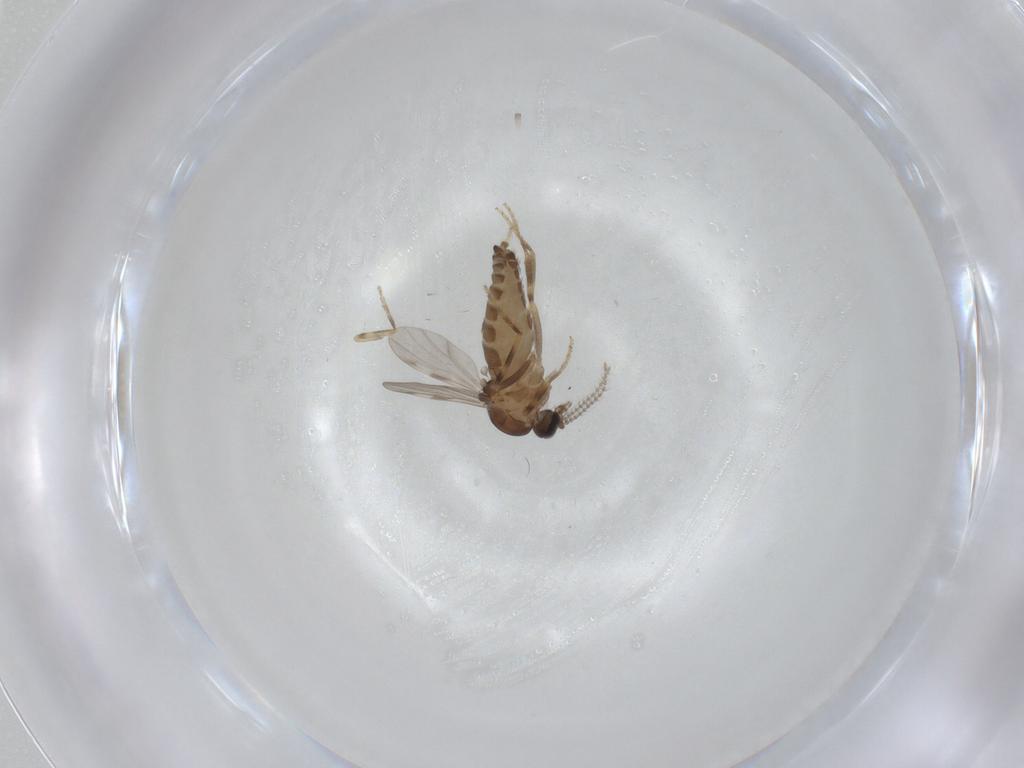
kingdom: Animalia
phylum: Arthropoda
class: Insecta
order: Diptera
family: Ceratopogonidae
